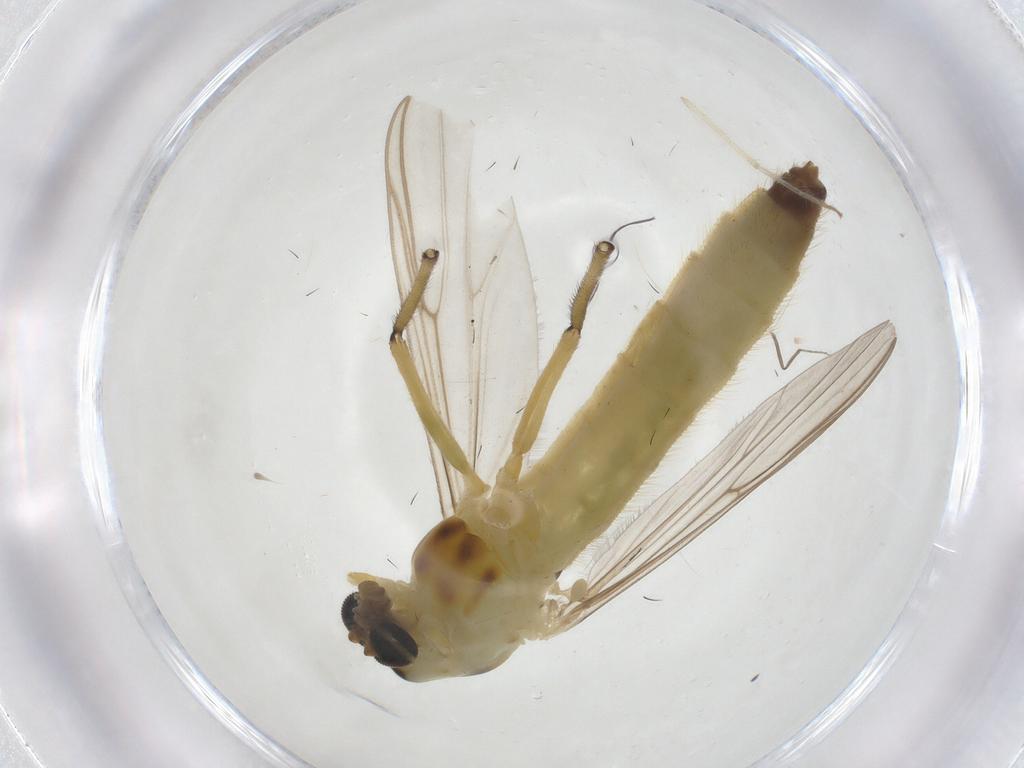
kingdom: Animalia
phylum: Arthropoda
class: Insecta
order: Diptera
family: Chironomidae
